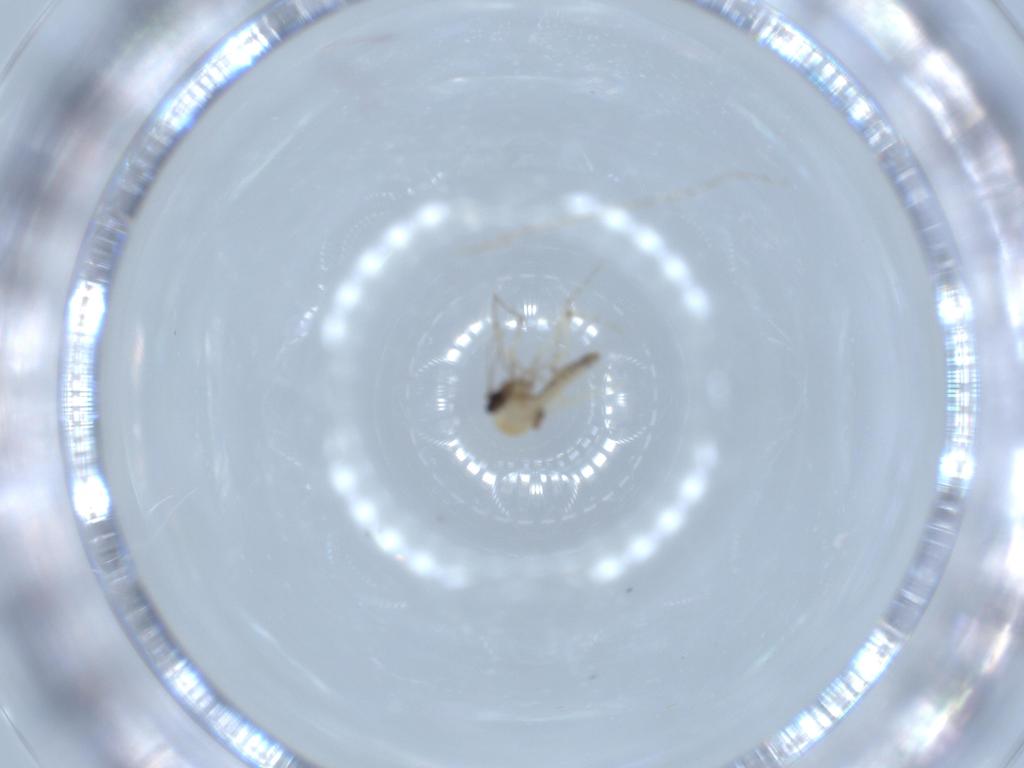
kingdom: Animalia
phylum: Arthropoda
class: Insecta
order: Diptera
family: Ceratopogonidae
